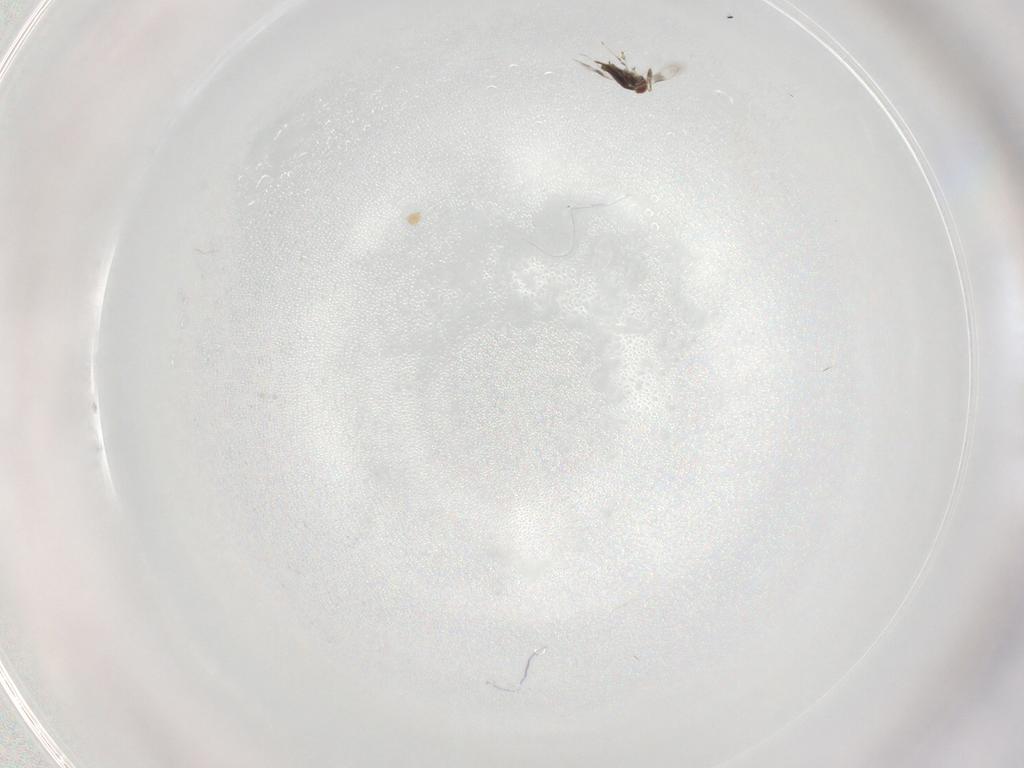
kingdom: Animalia
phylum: Arthropoda
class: Insecta
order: Hymenoptera
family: Azotidae
